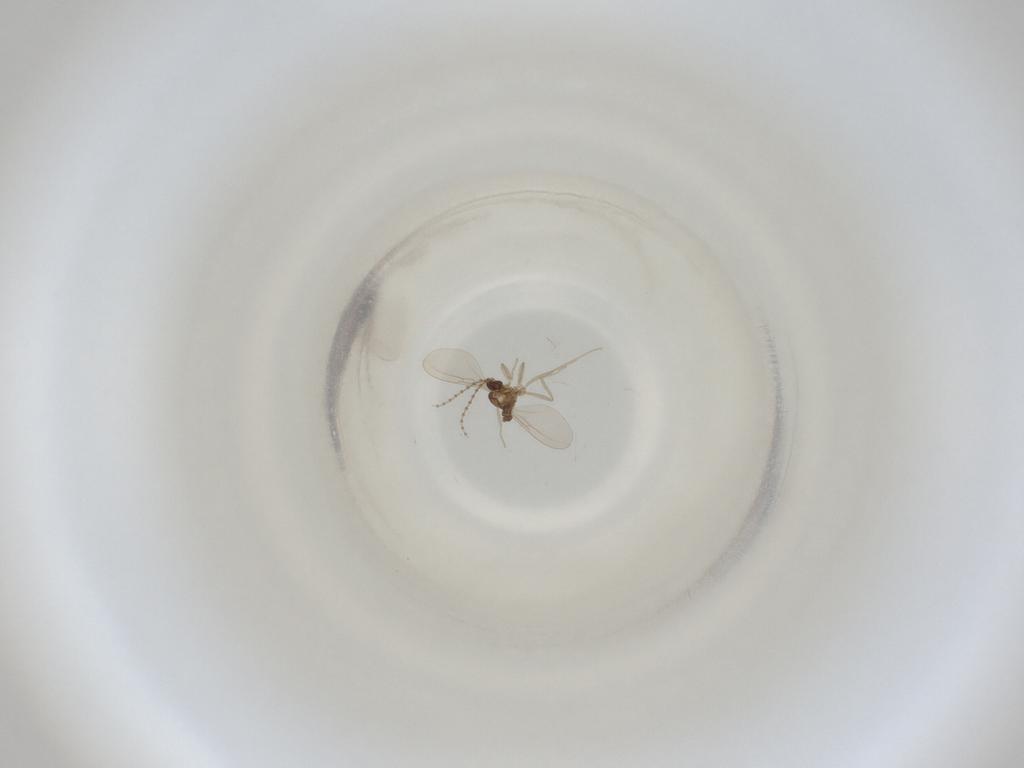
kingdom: Animalia
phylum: Arthropoda
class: Insecta
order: Diptera
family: Cecidomyiidae
